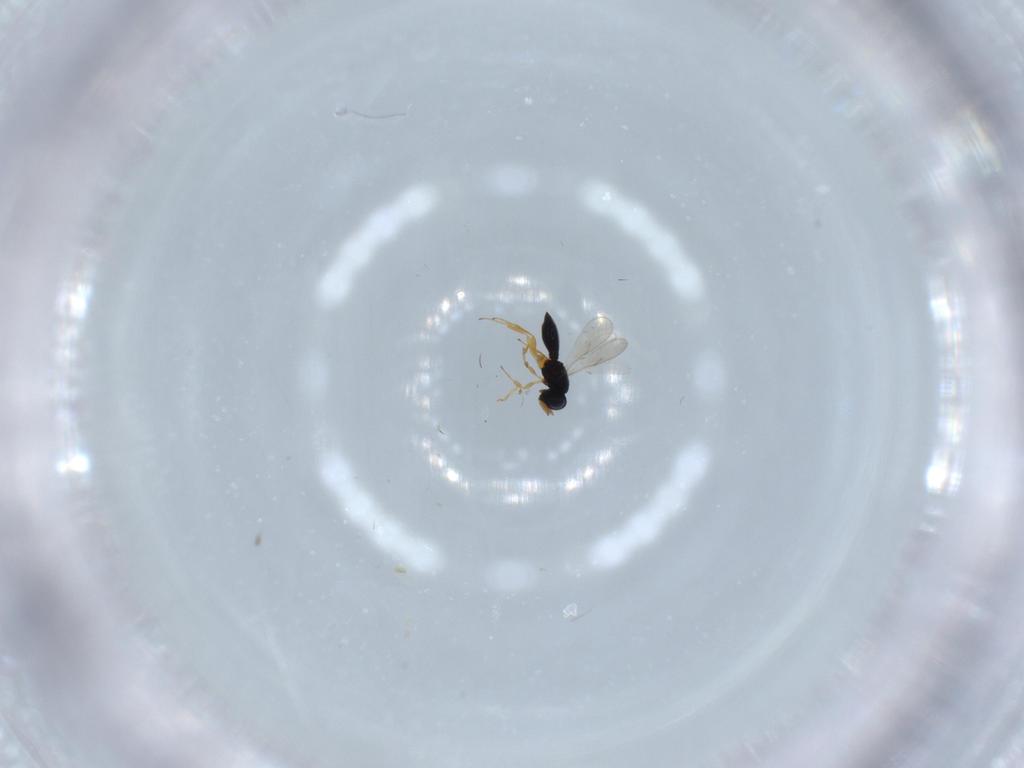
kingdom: Animalia
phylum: Arthropoda
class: Insecta
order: Hymenoptera
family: Scelionidae
